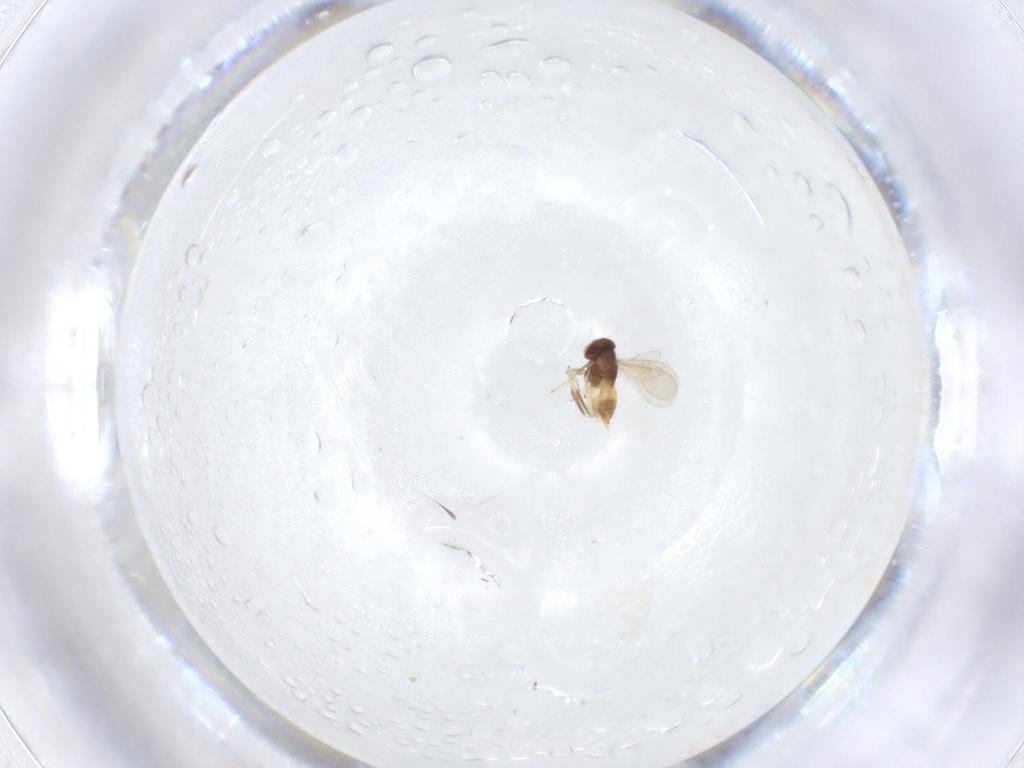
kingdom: Animalia
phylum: Arthropoda
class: Insecta
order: Hymenoptera
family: Aphelinidae
